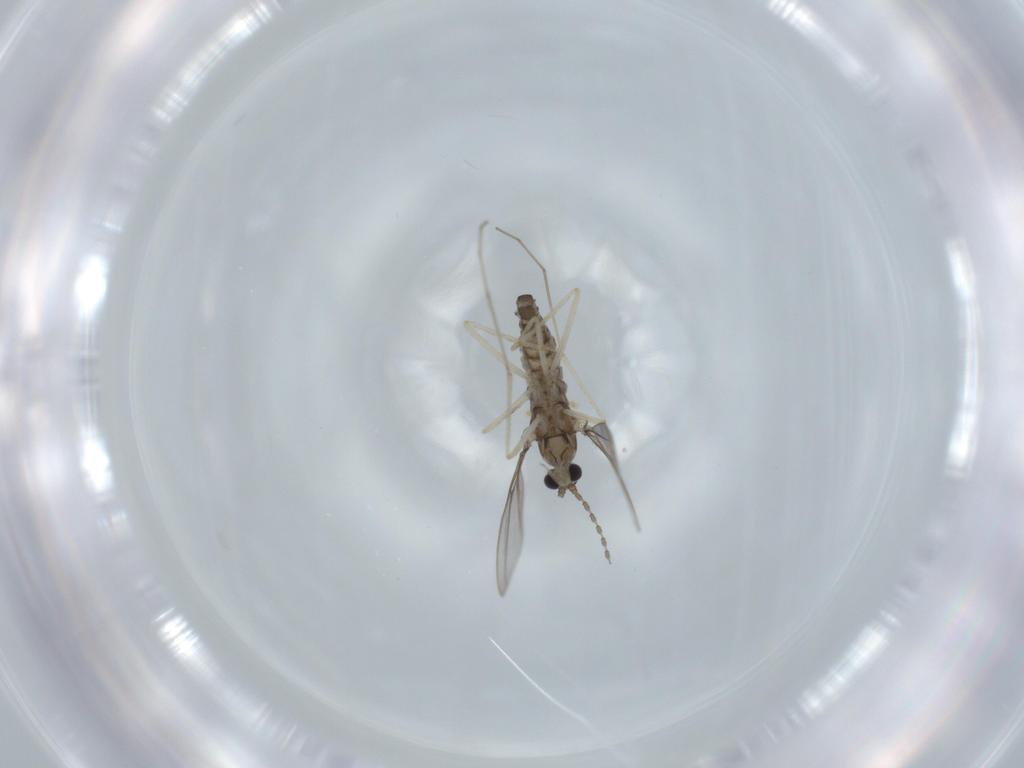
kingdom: Animalia
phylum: Arthropoda
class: Insecta
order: Diptera
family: Cecidomyiidae
